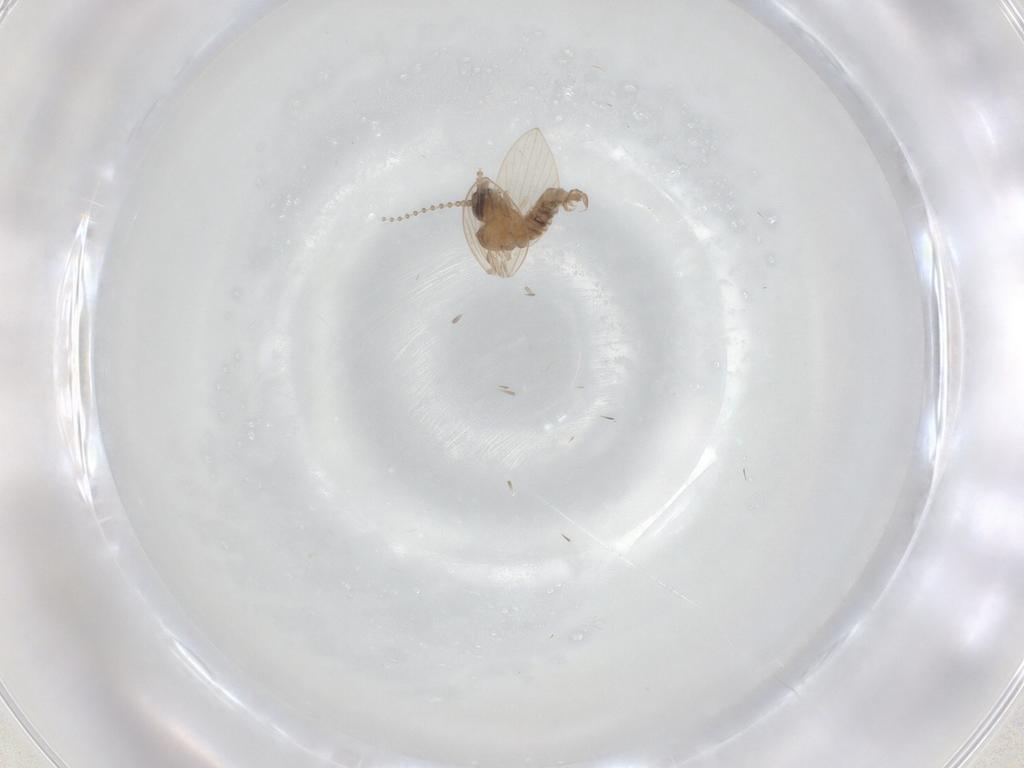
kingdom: Animalia
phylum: Arthropoda
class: Insecta
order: Diptera
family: Psychodidae
